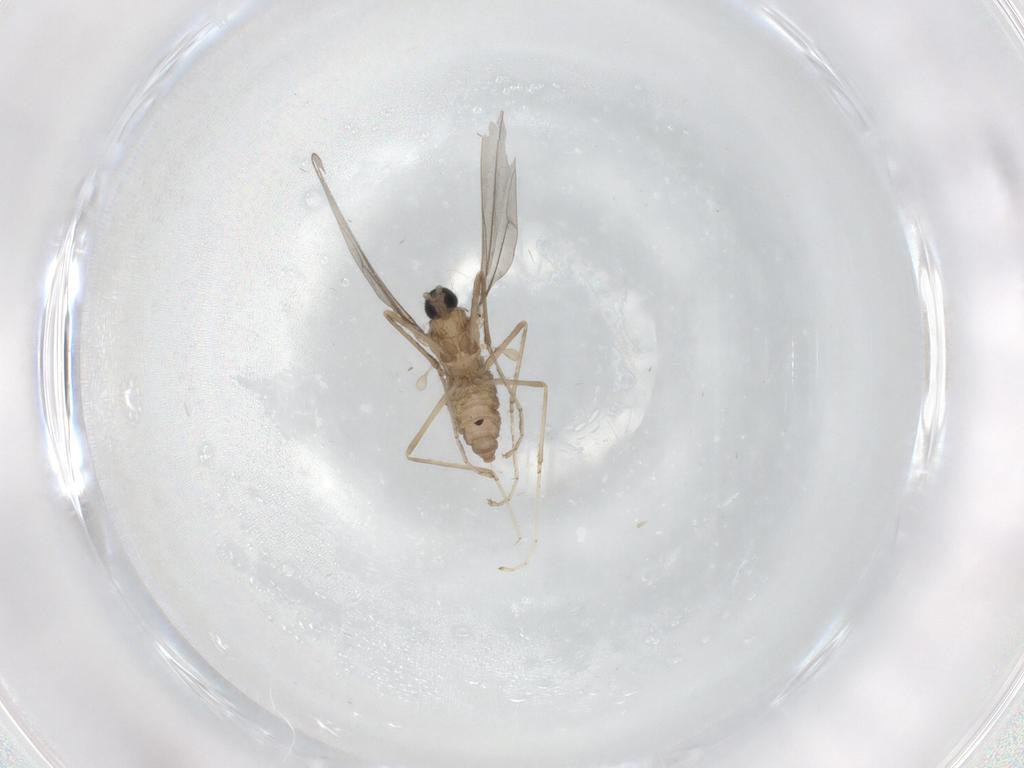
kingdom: Animalia
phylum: Arthropoda
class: Insecta
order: Diptera
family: Cecidomyiidae
